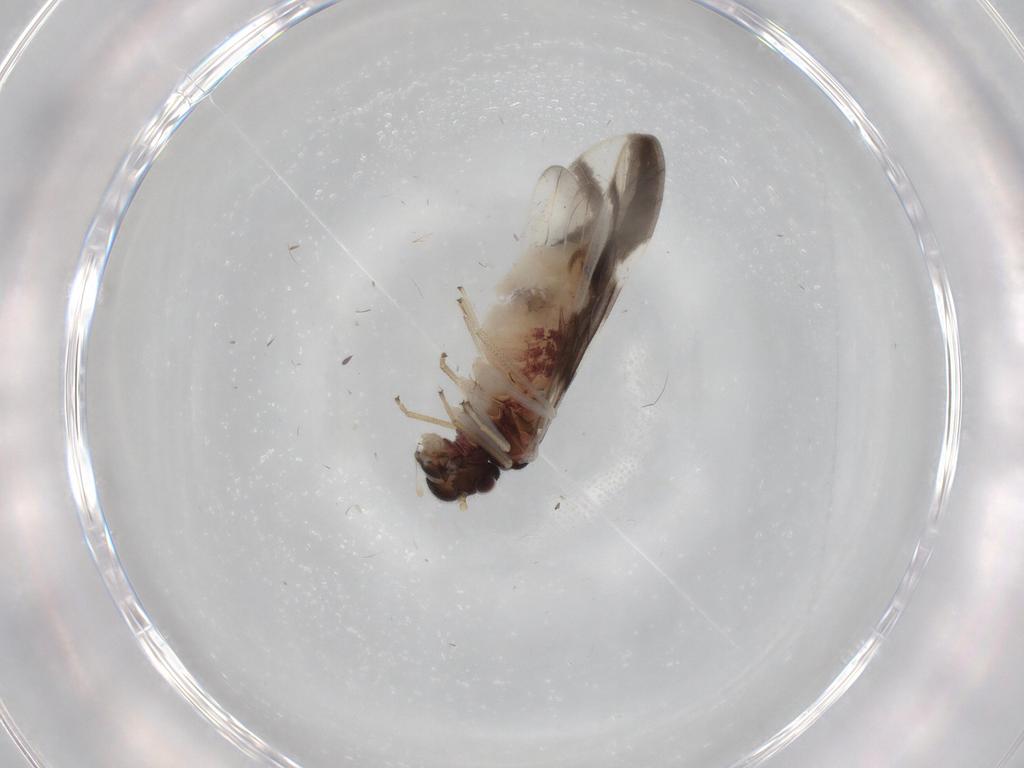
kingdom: Animalia
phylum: Arthropoda
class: Insecta
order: Psocodea
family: Caeciliusidae
